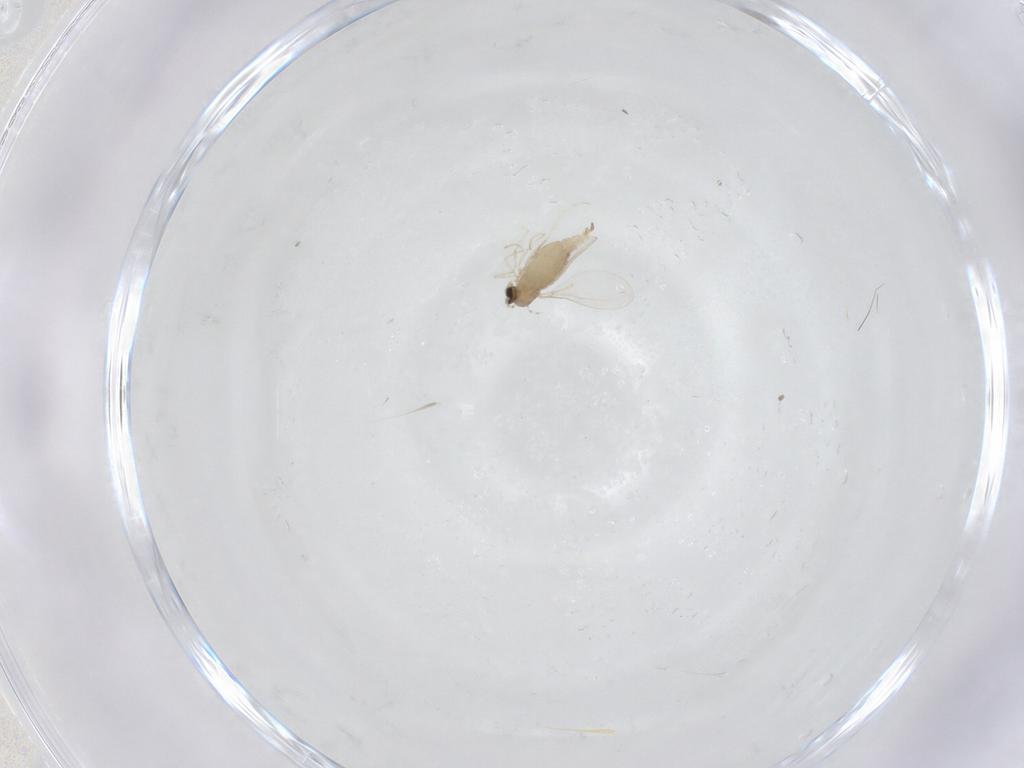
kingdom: Animalia
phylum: Arthropoda
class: Insecta
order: Diptera
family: Cecidomyiidae
